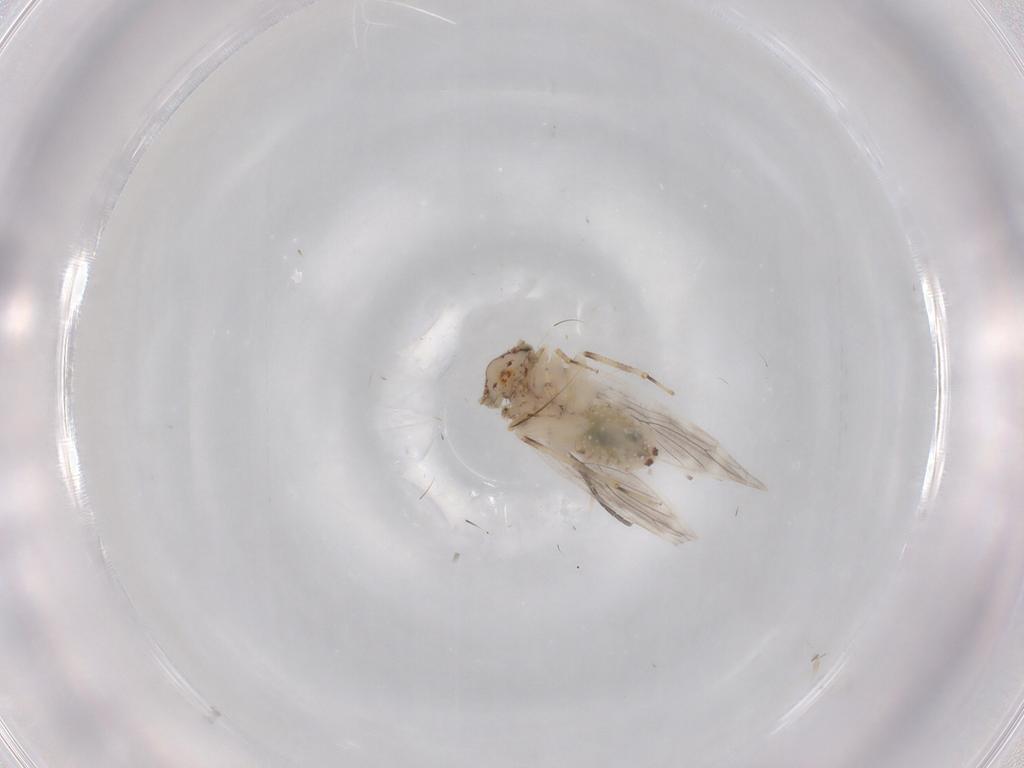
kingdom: Animalia
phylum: Arthropoda
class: Insecta
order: Psocodea
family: Lepidopsocidae
